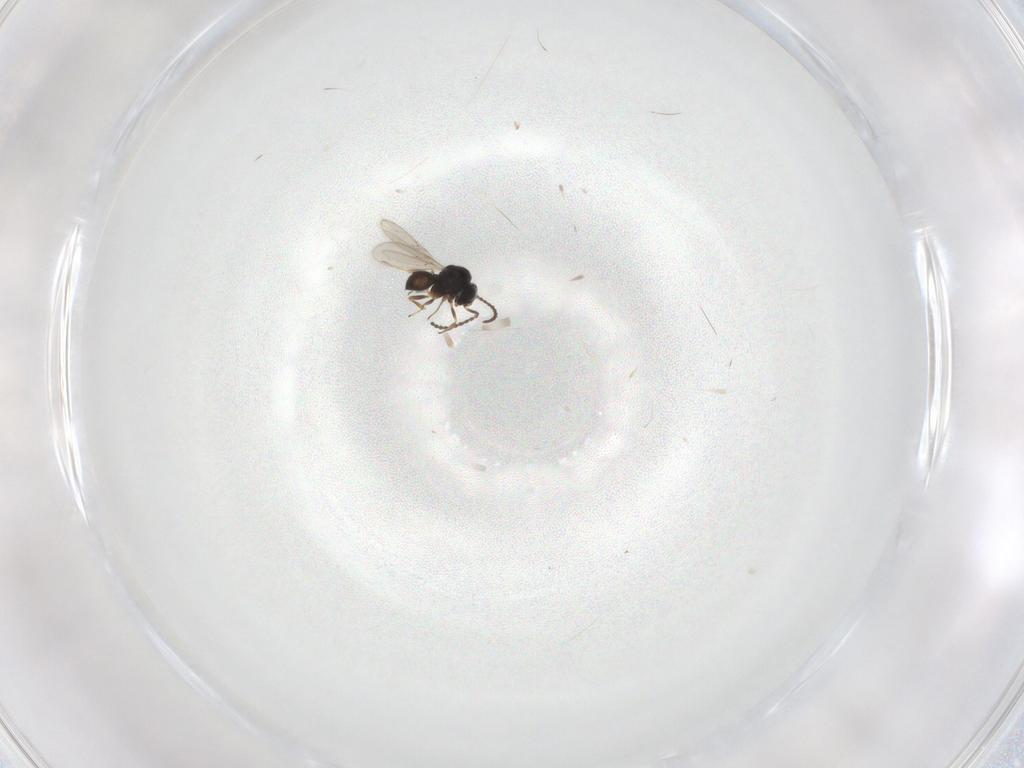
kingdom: Animalia
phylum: Arthropoda
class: Insecta
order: Hymenoptera
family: Scelionidae
